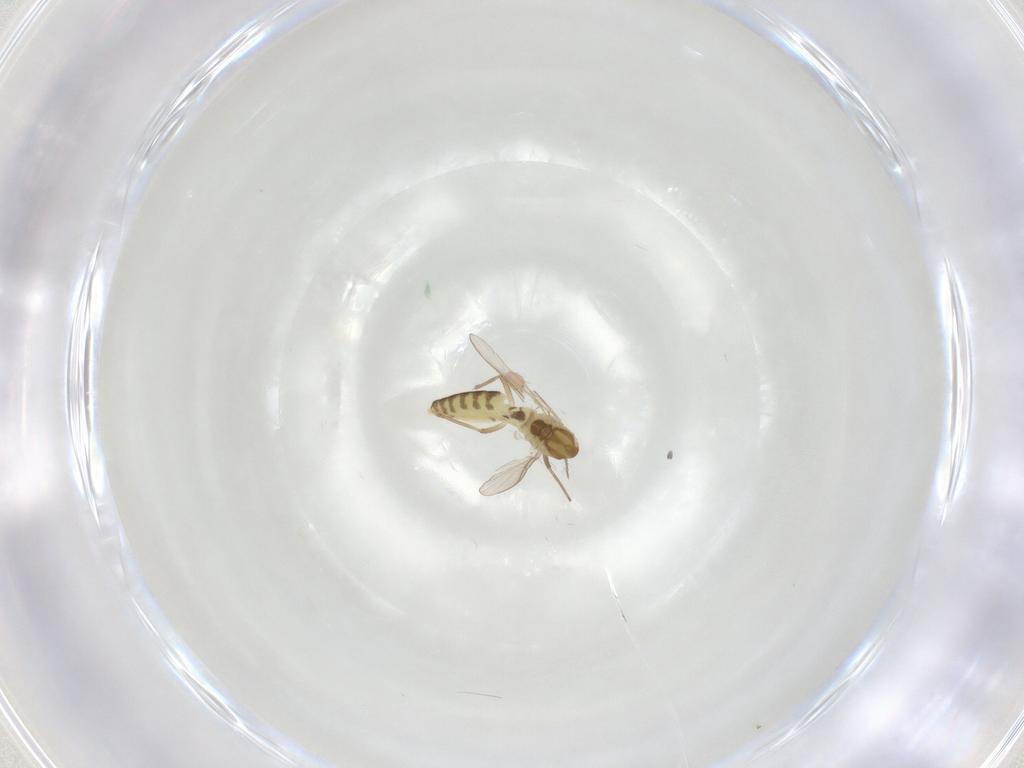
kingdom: Animalia
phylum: Arthropoda
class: Insecta
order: Diptera
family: Chironomidae
